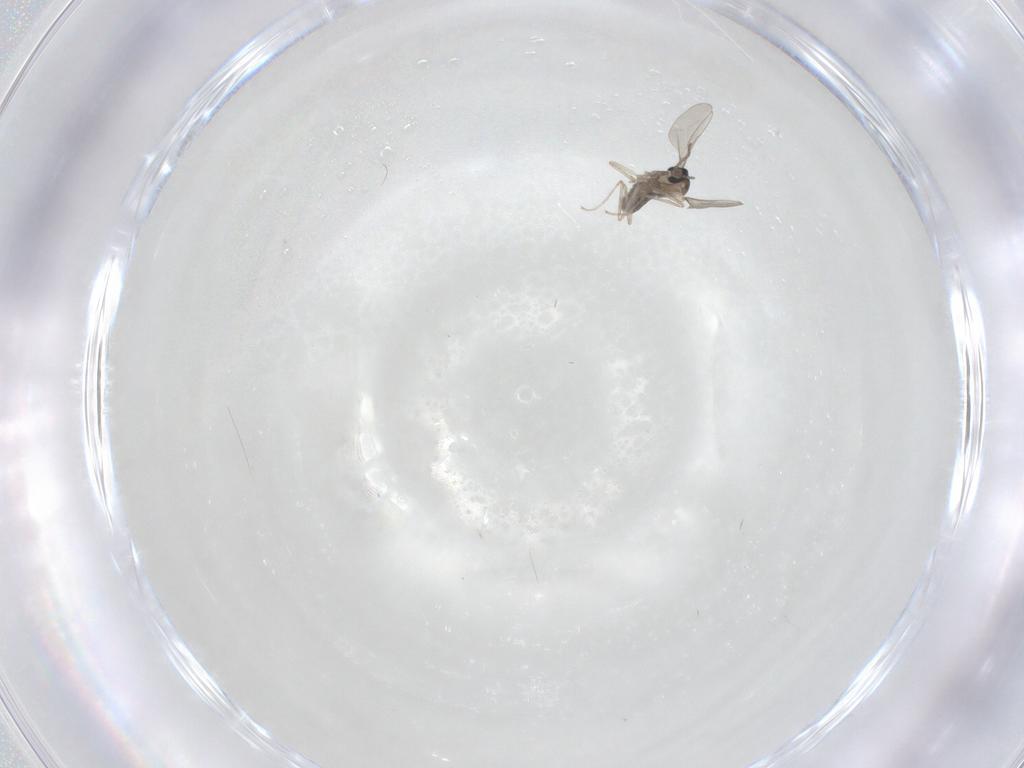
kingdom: Animalia
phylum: Arthropoda
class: Insecta
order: Diptera
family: Cecidomyiidae
